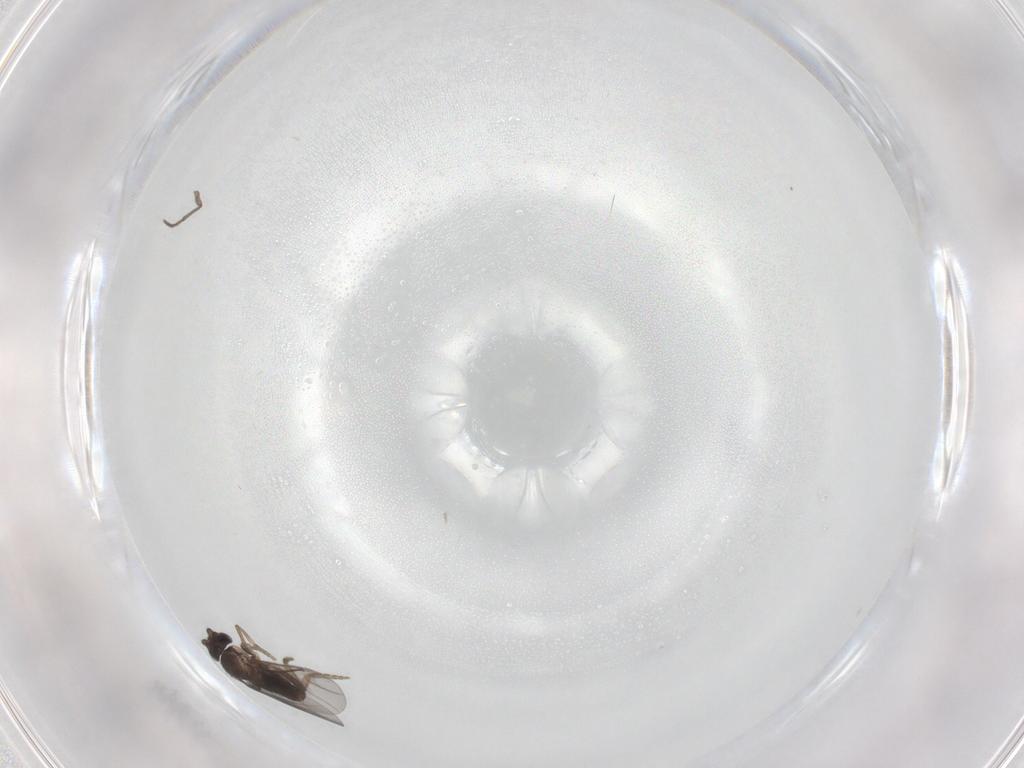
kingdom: Animalia
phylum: Arthropoda
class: Insecta
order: Diptera
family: Sciaridae
